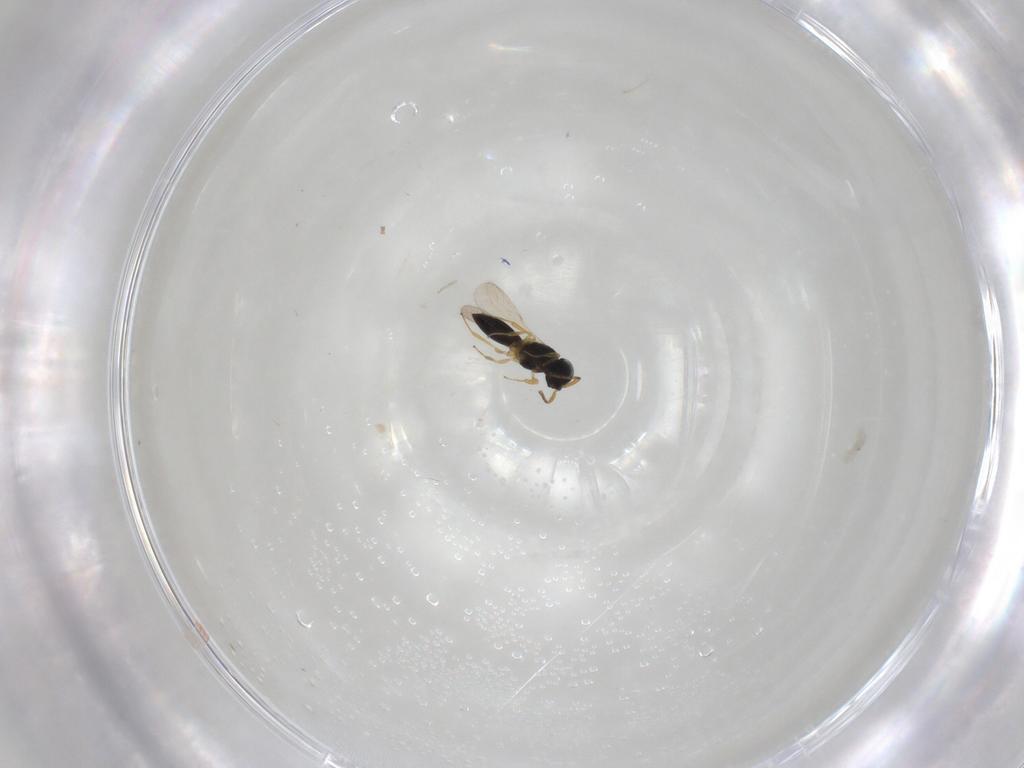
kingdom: Animalia
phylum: Arthropoda
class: Insecta
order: Hymenoptera
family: Scelionidae
